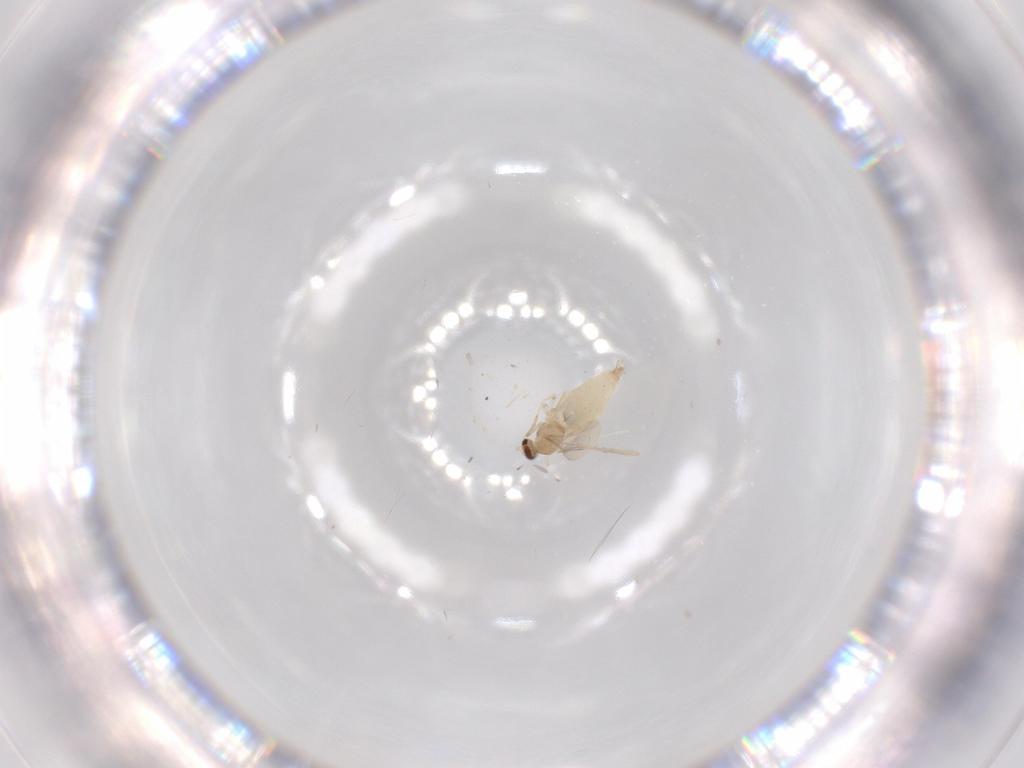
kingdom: Animalia
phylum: Arthropoda
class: Insecta
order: Diptera
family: Cecidomyiidae
